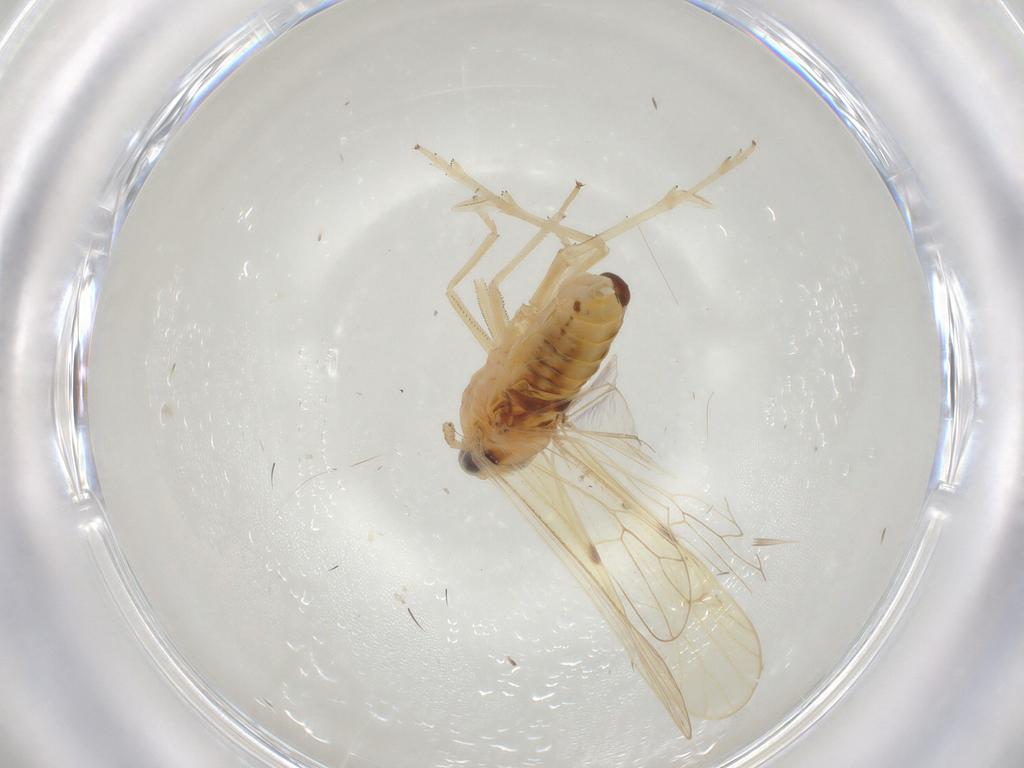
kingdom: Animalia
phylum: Arthropoda
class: Insecta
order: Hemiptera
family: Delphacidae
